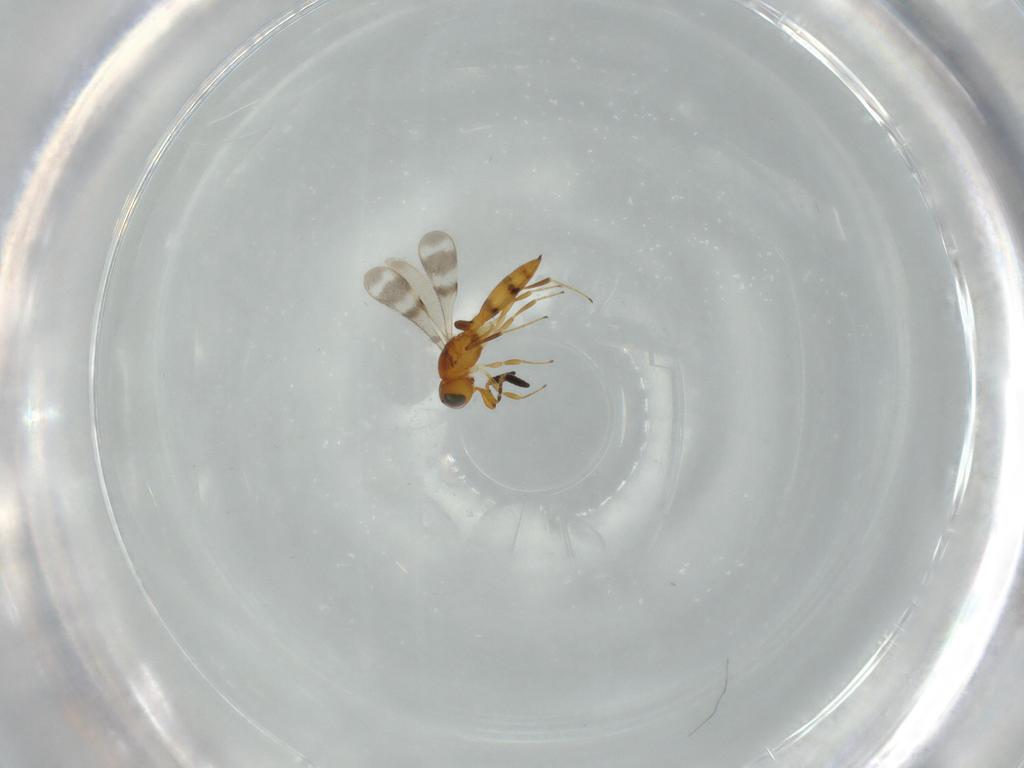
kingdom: Animalia
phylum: Arthropoda
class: Insecta
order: Hymenoptera
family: Scelionidae
